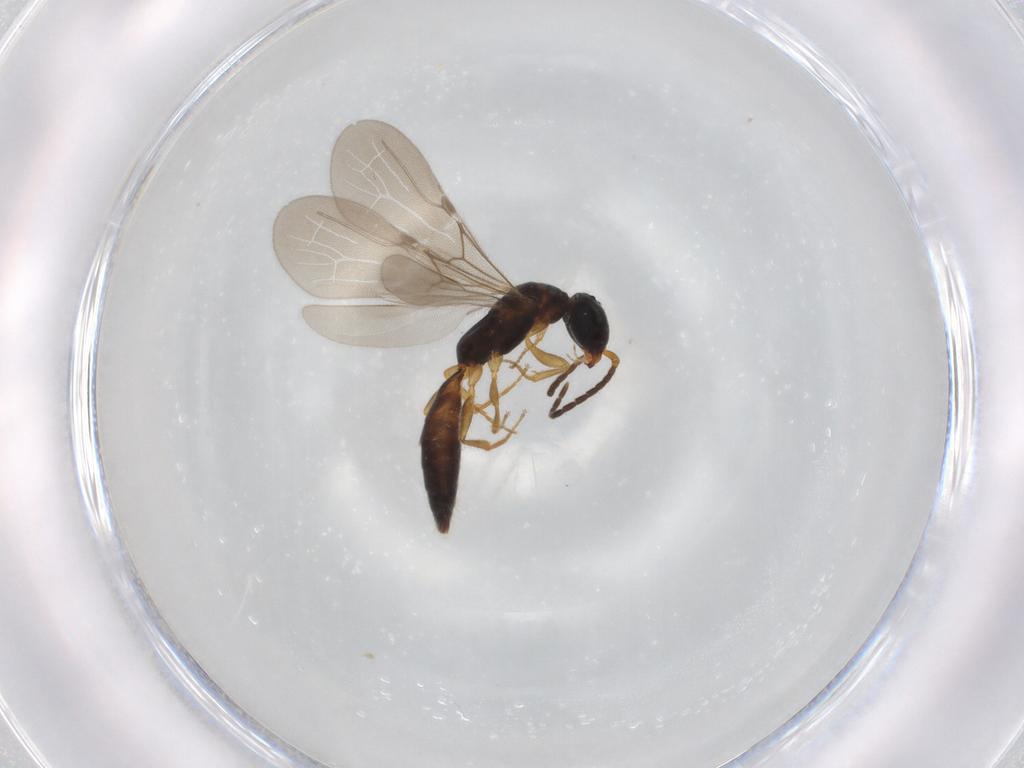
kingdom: Animalia
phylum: Arthropoda
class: Insecta
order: Hymenoptera
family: Bethylidae
